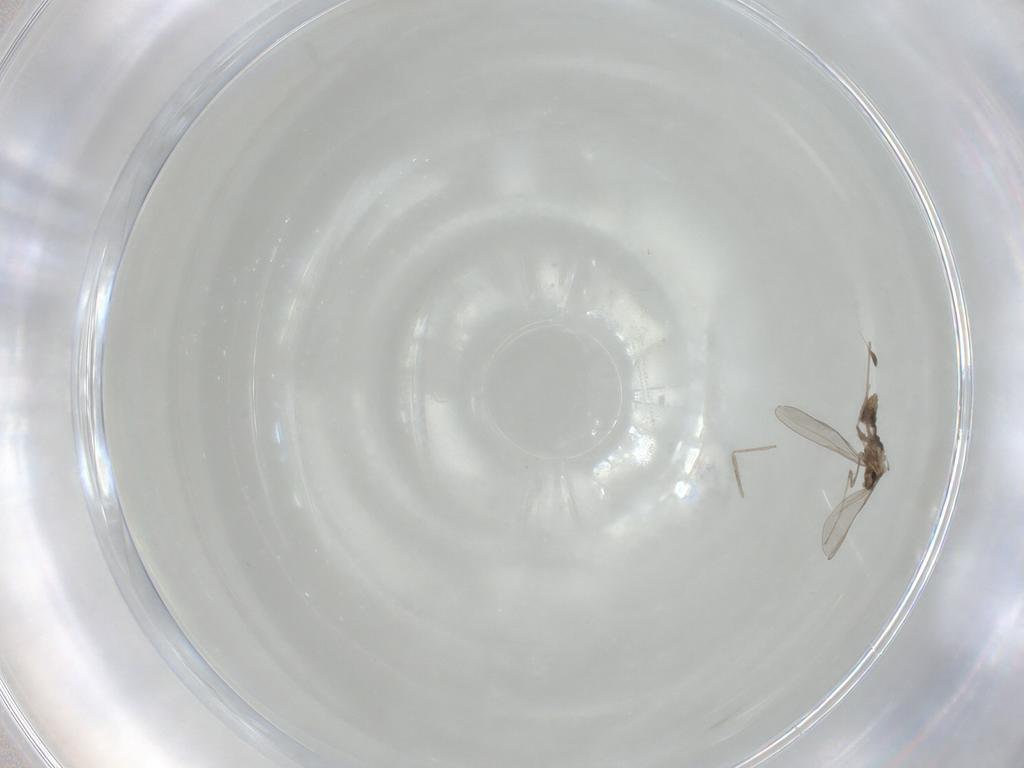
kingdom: Animalia
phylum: Arthropoda
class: Insecta
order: Diptera
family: Cecidomyiidae
